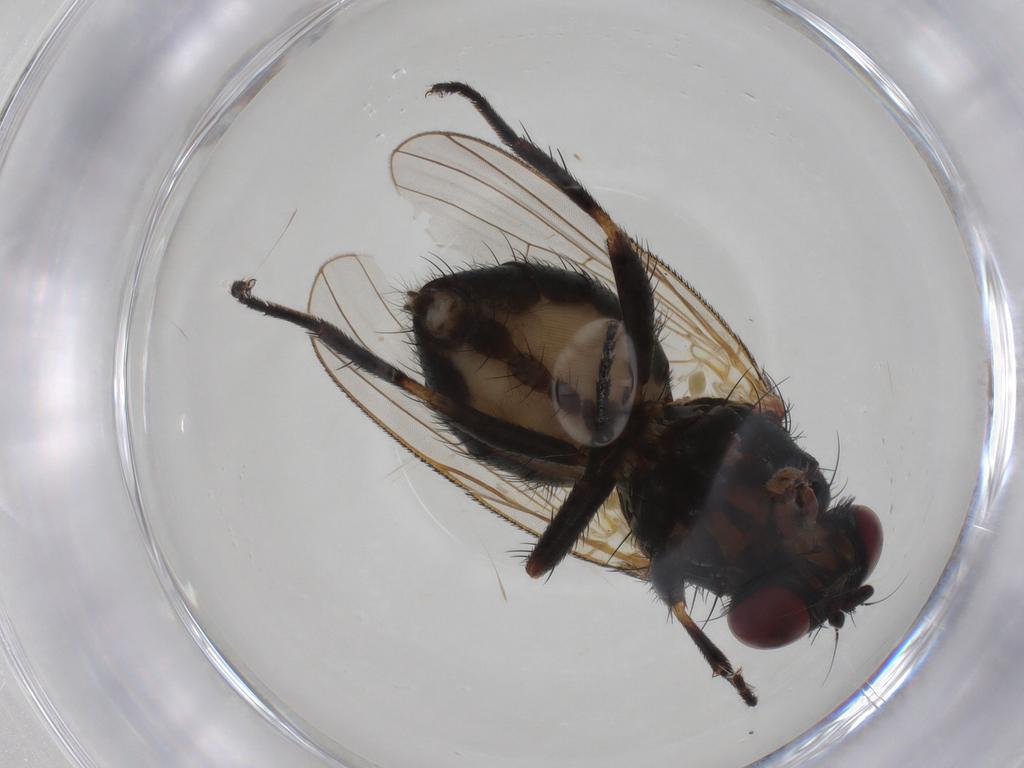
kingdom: Animalia
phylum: Arthropoda
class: Insecta
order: Diptera
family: Fannia
